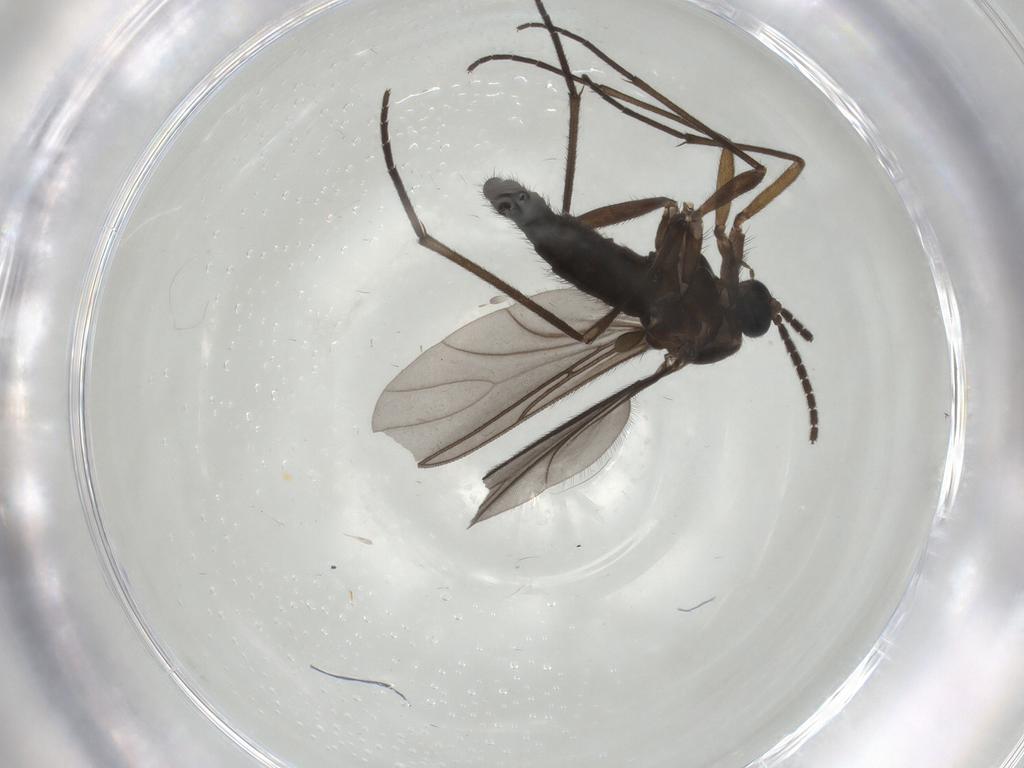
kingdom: Animalia
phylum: Arthropoda
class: Insecta
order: Diptera
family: Sciaridae
